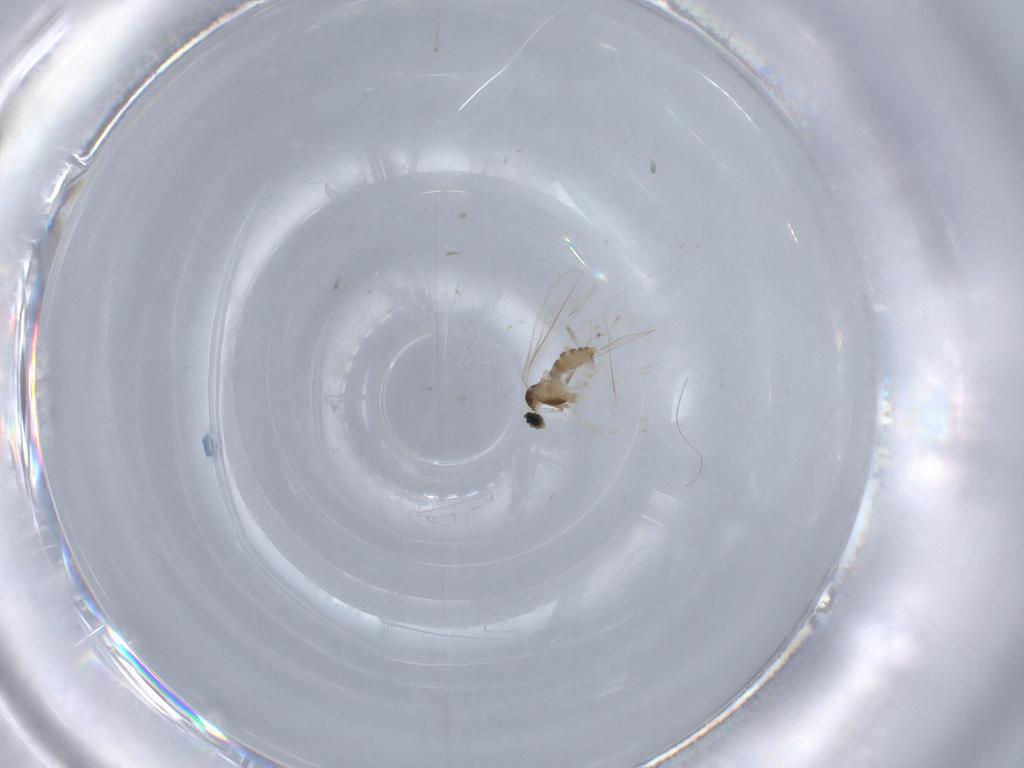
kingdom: Animalia
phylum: Arthropoda
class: Insecta
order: Diptera
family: Cecidomyiidae
